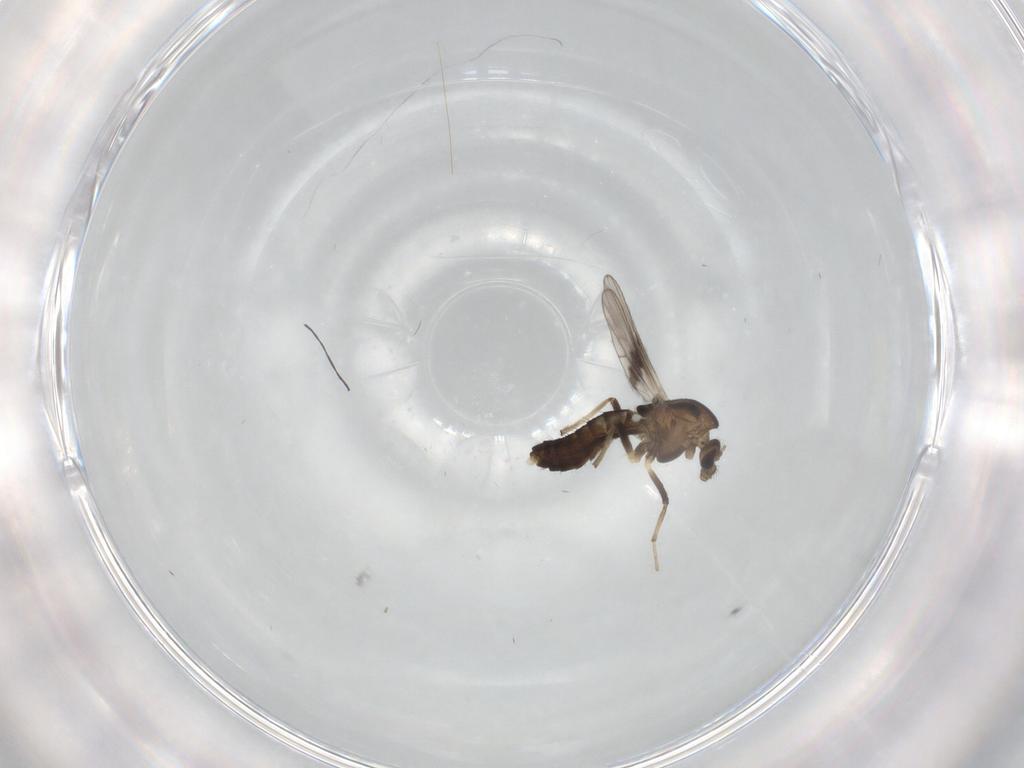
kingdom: Animalia
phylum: Arthropoda
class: Insecta
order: Diptera
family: Chironomidae
